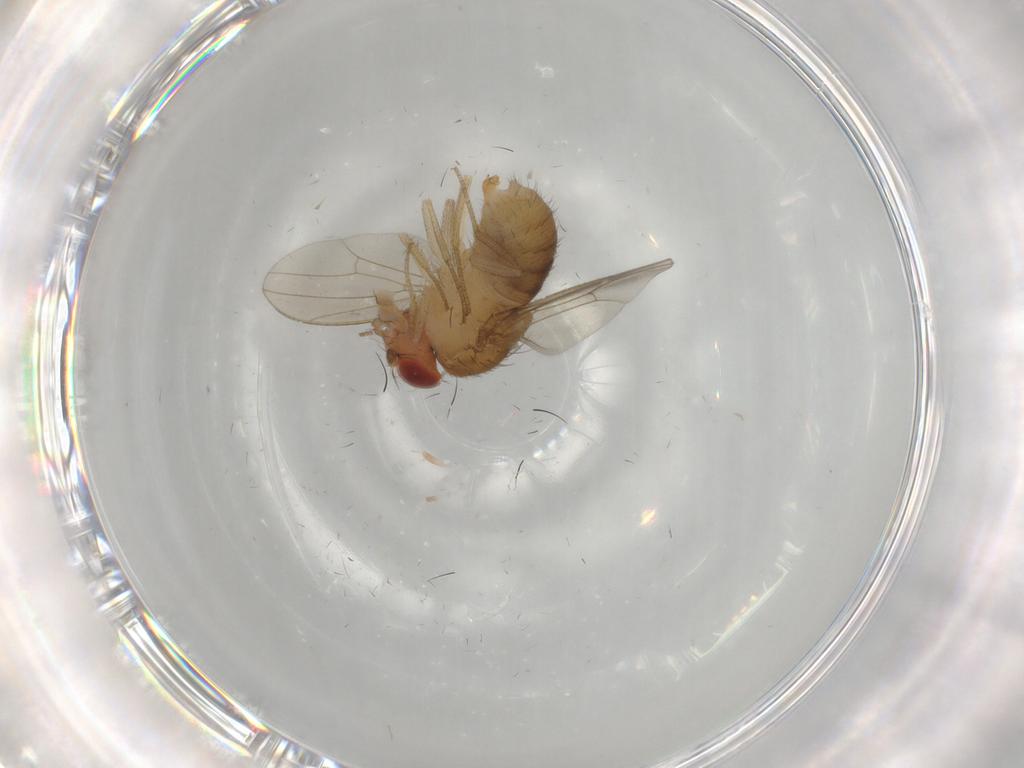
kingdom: Animalia
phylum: Arthropoda
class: Insecta
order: Diptera
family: Drosophilidae
